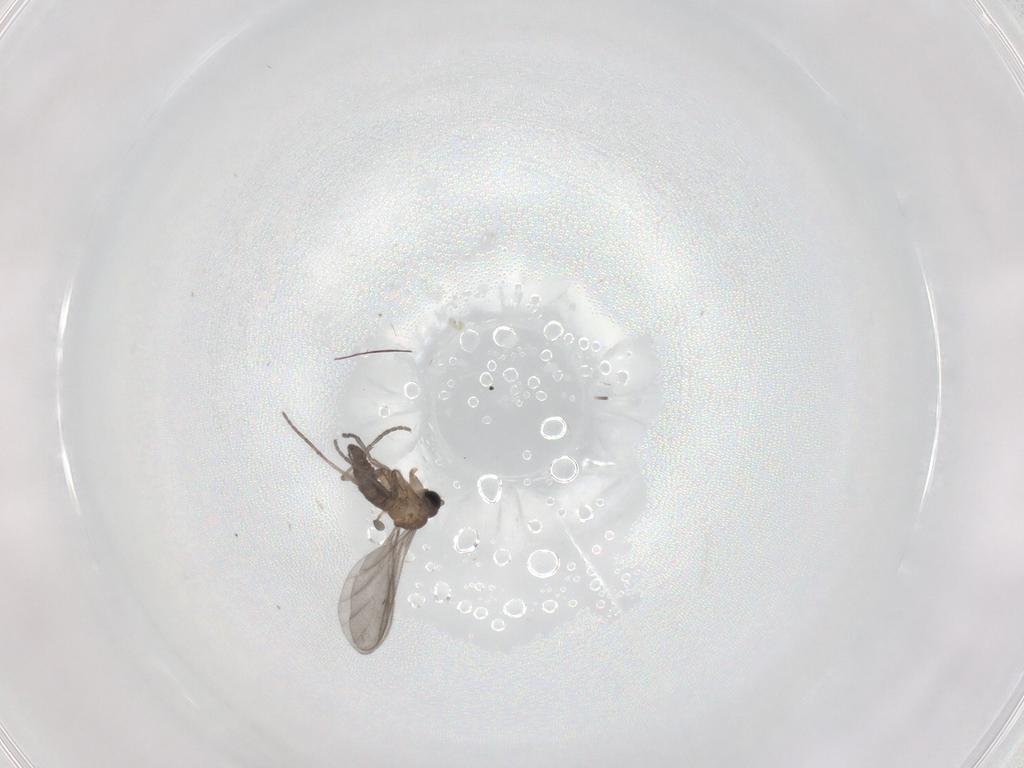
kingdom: Animalia
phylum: Arthropoda
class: Insecta
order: Diptera
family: Sciaridae
